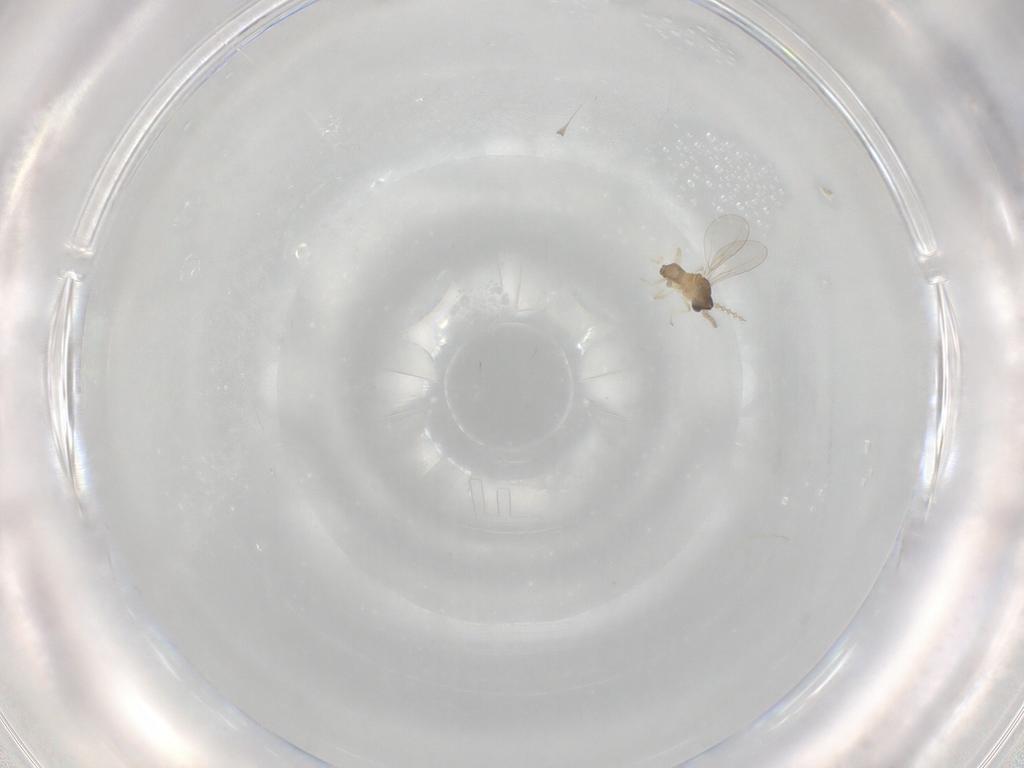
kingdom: Animalia
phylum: Arthropoda
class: Insecta
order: Diptera
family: Cecidomyiidae
